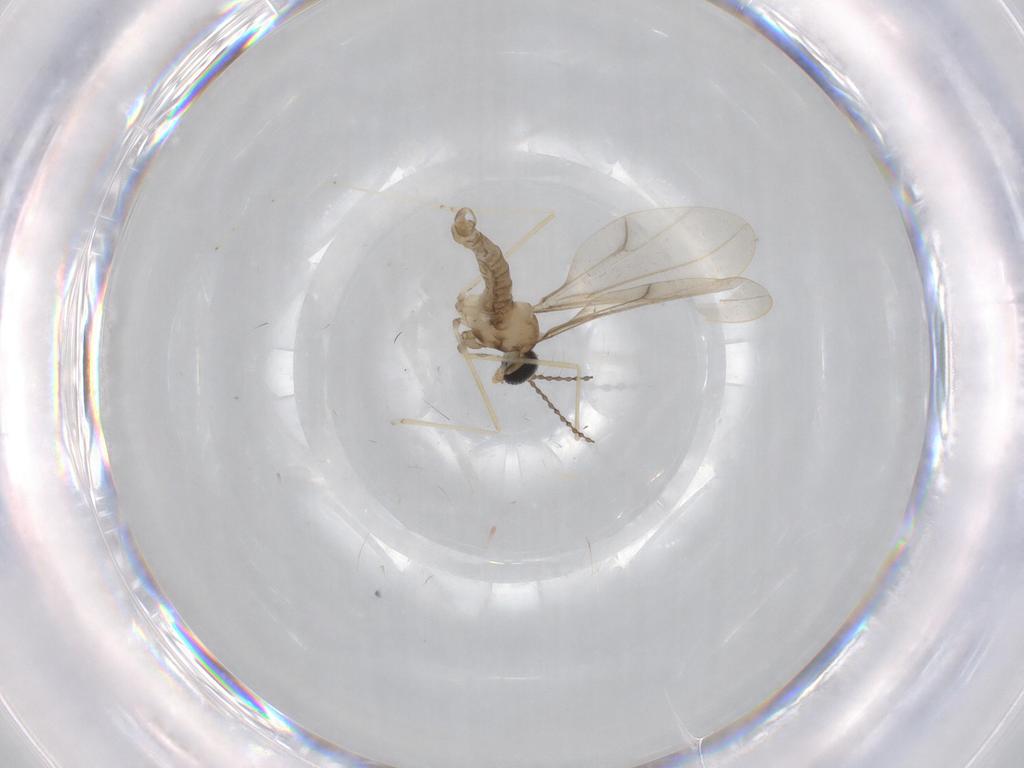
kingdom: Animalia
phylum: Arthropoda
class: Insecta
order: Diptera
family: Cecidomyiidae
